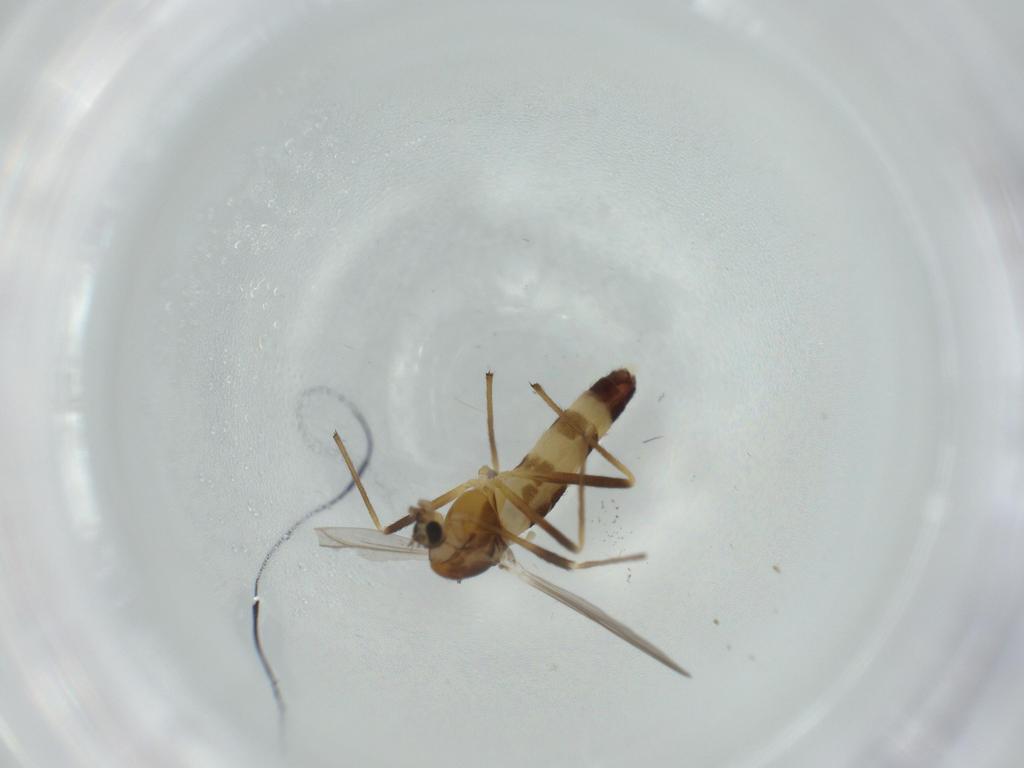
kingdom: Animalia
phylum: Arthropoda
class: Insecta
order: Diptera
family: Chironomidae
